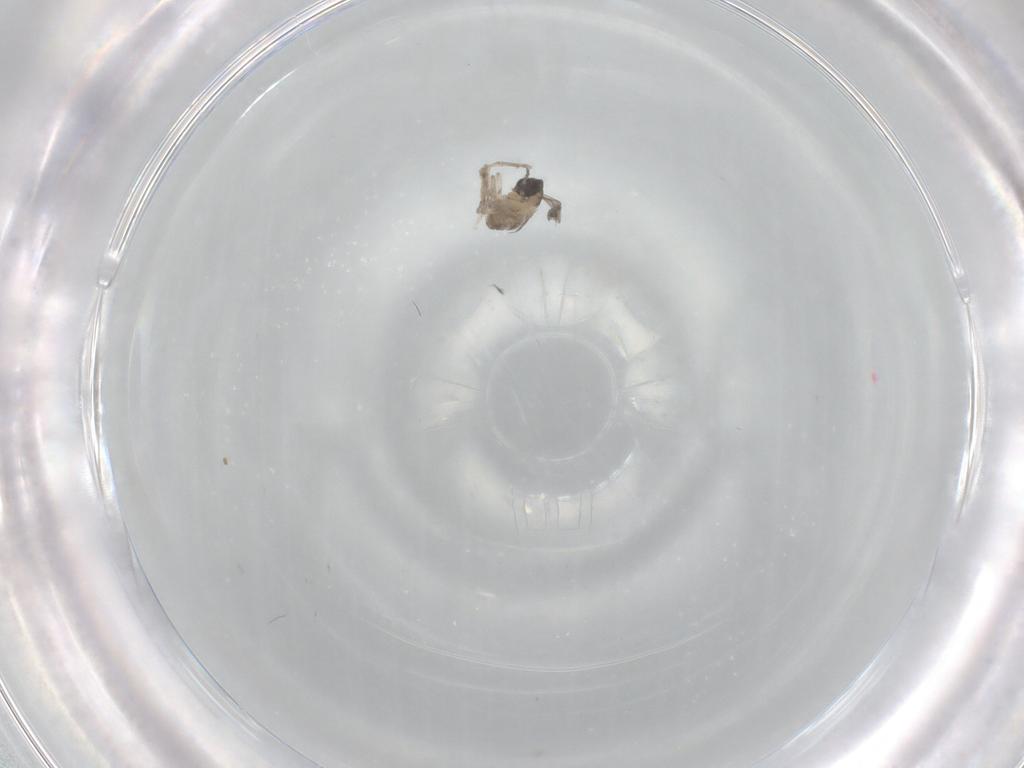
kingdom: Animalia
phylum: Arthropoda
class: Insecta
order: Diptera
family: Cecidomyiidae
